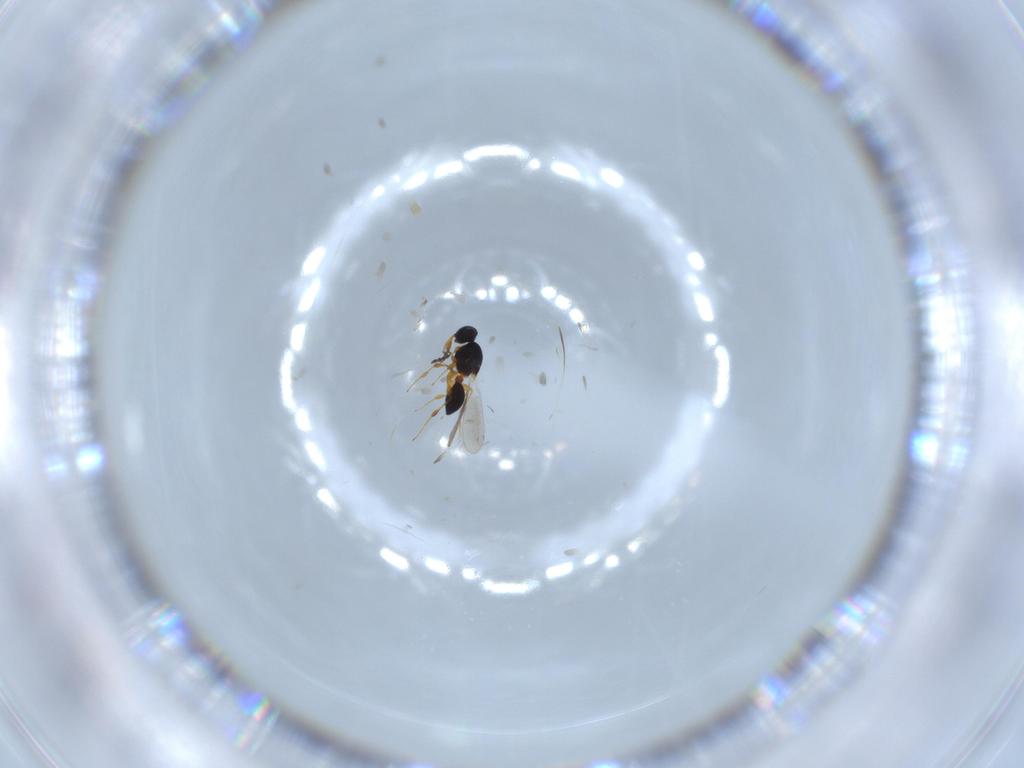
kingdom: Animalia
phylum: Arthropoda
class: Insecta
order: Hymenoptera
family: Platygastridae
